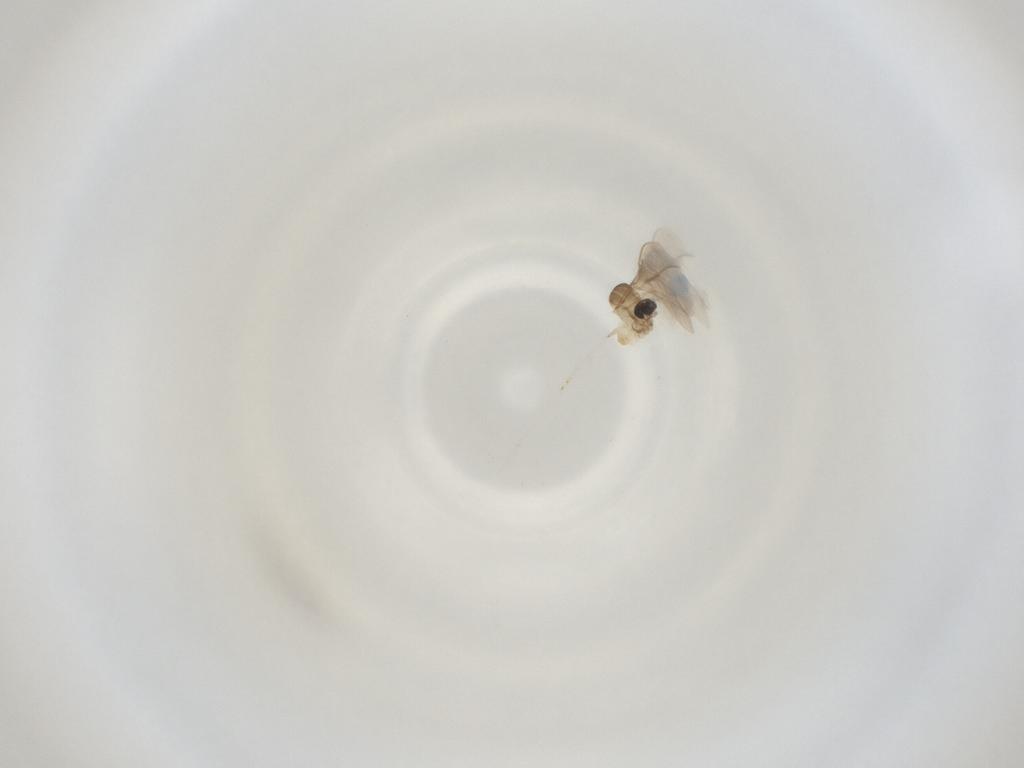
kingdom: Animalia
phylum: Arthropoda
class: Insecta
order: Diptera
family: Cecidomyiidae
